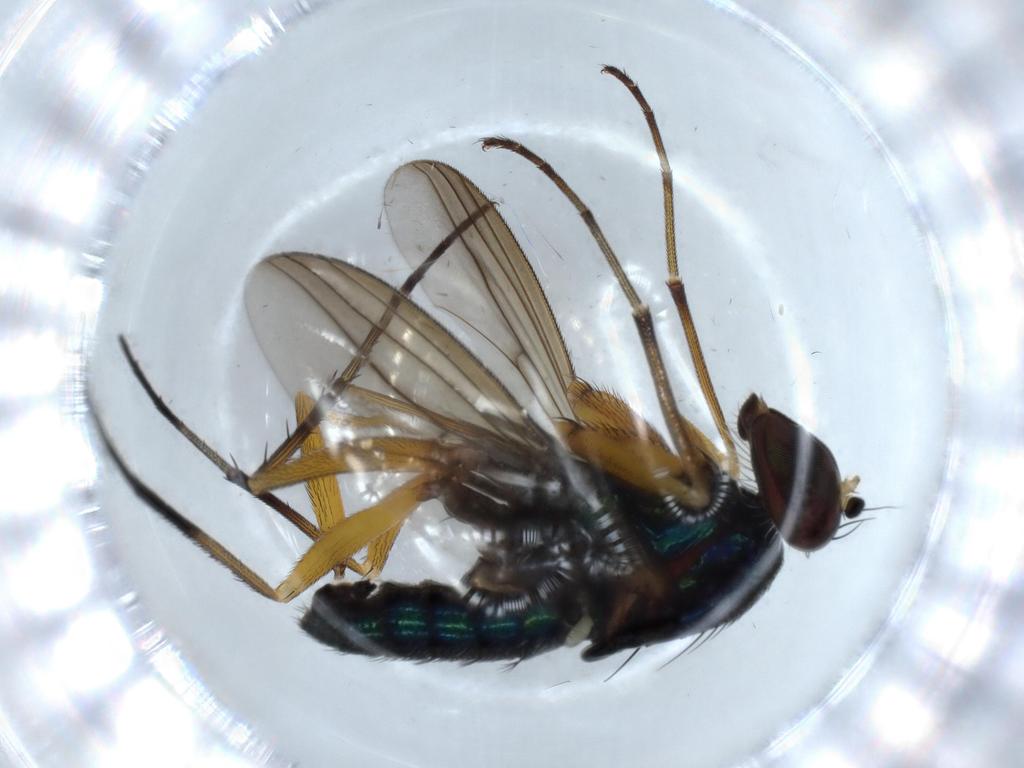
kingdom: Animalia
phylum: Arthropoda
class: Insecta
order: Diptera
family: Dolichopodidae
